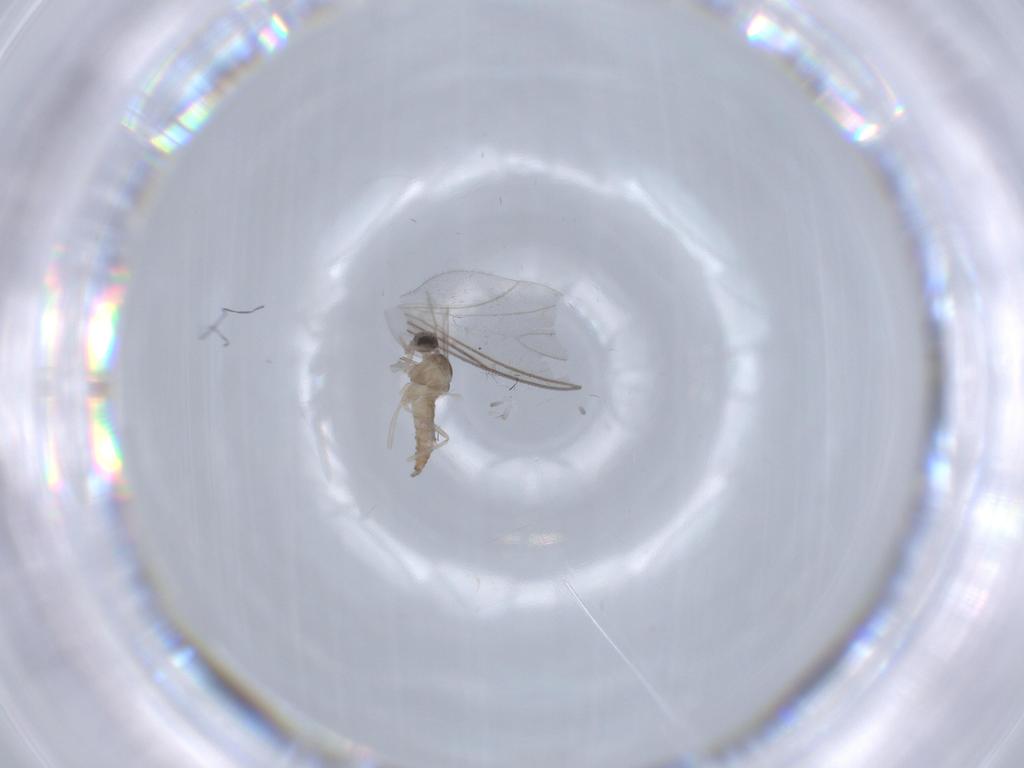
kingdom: Animalia
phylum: Arthropoda
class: Insecta
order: Diptera
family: Cecidomyiidae
